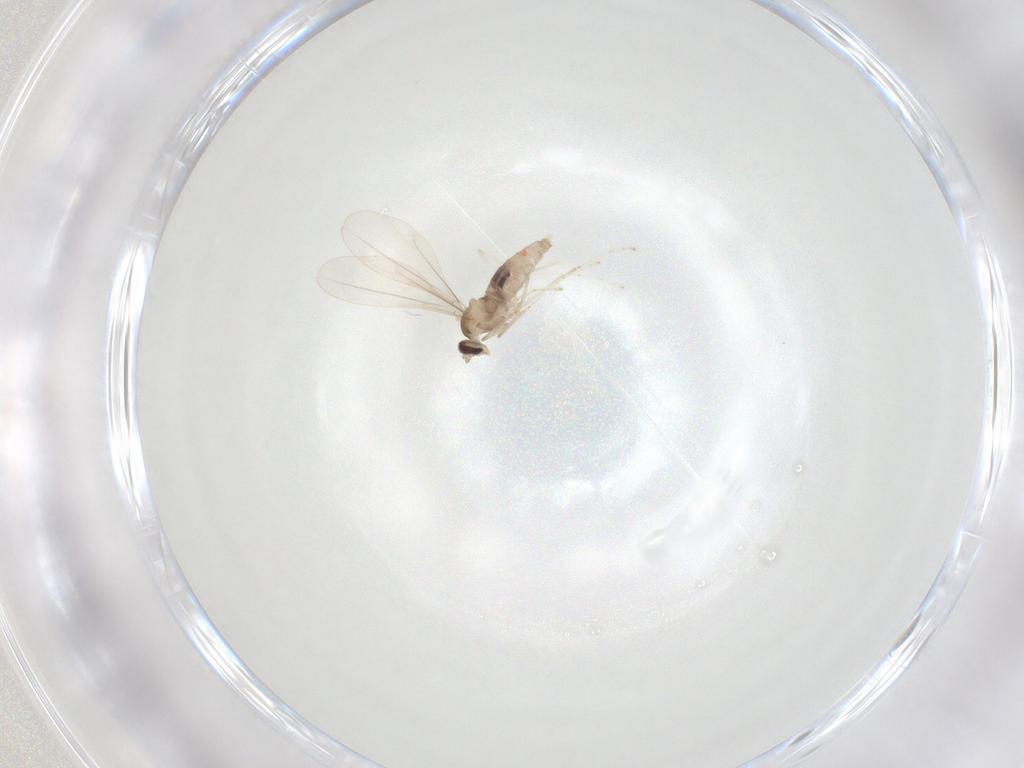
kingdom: Animalia
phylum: Arthropoda
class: Insecta
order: Diptera
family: Cecidomyiidae
